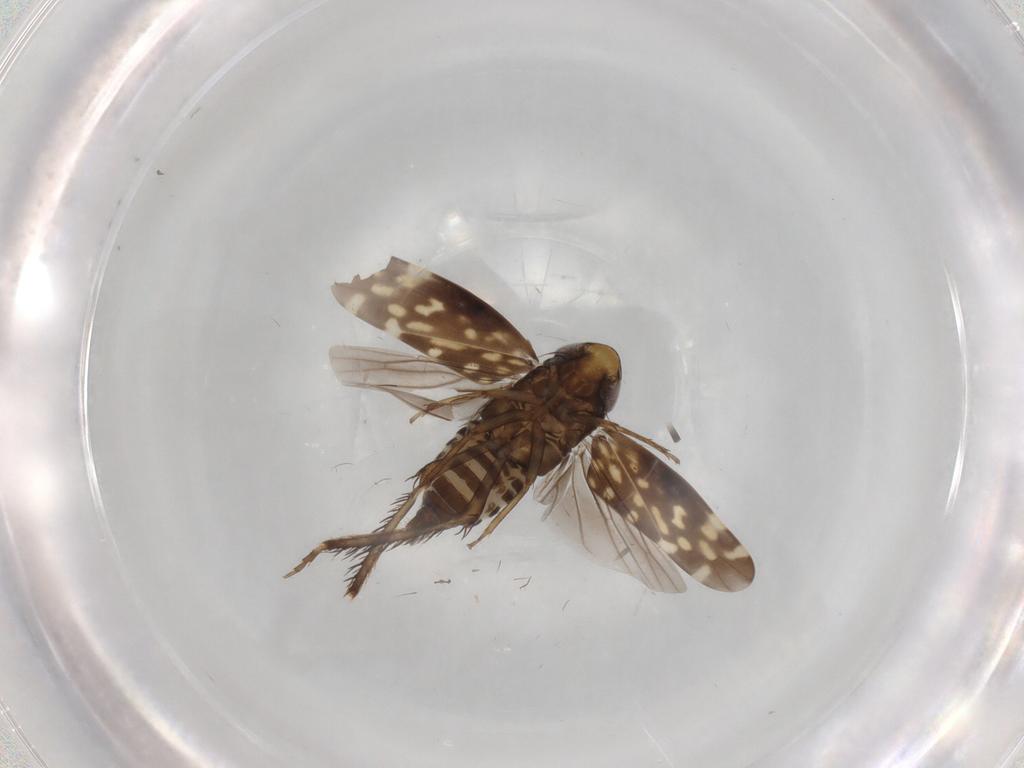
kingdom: Animalia
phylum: Arthropoda
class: Insecta
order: Hemiptera
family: Cicadellidae
